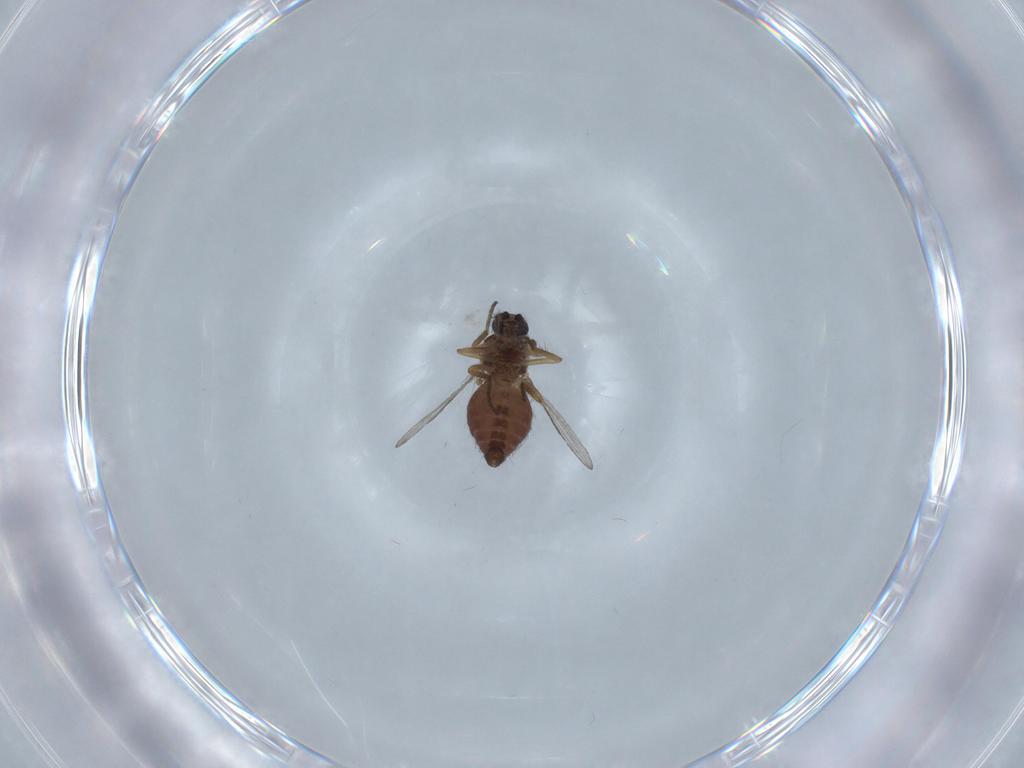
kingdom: Animalia
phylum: Arthropoda
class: Insecta
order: Diptera
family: Ceratopogonidae
